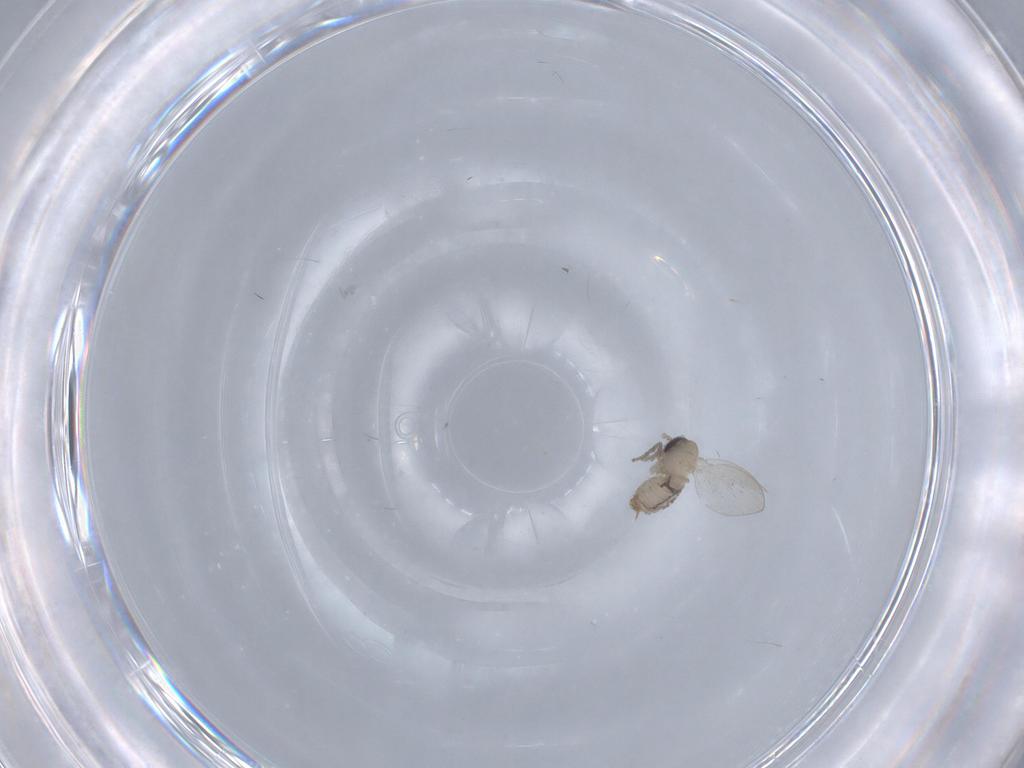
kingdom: Animalia
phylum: Arthropoda
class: Insecta
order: Diptera
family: Psychodidae
